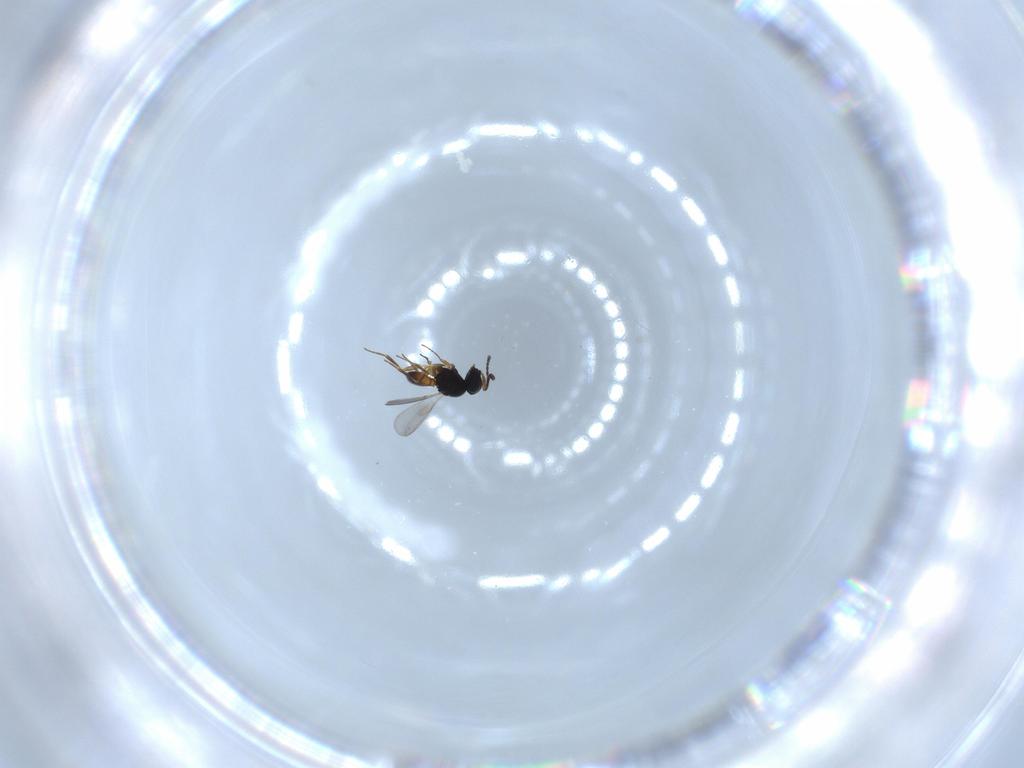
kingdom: Animalia
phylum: Arthropoda
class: Insecta
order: Hymenoptera
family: Scelionidae
